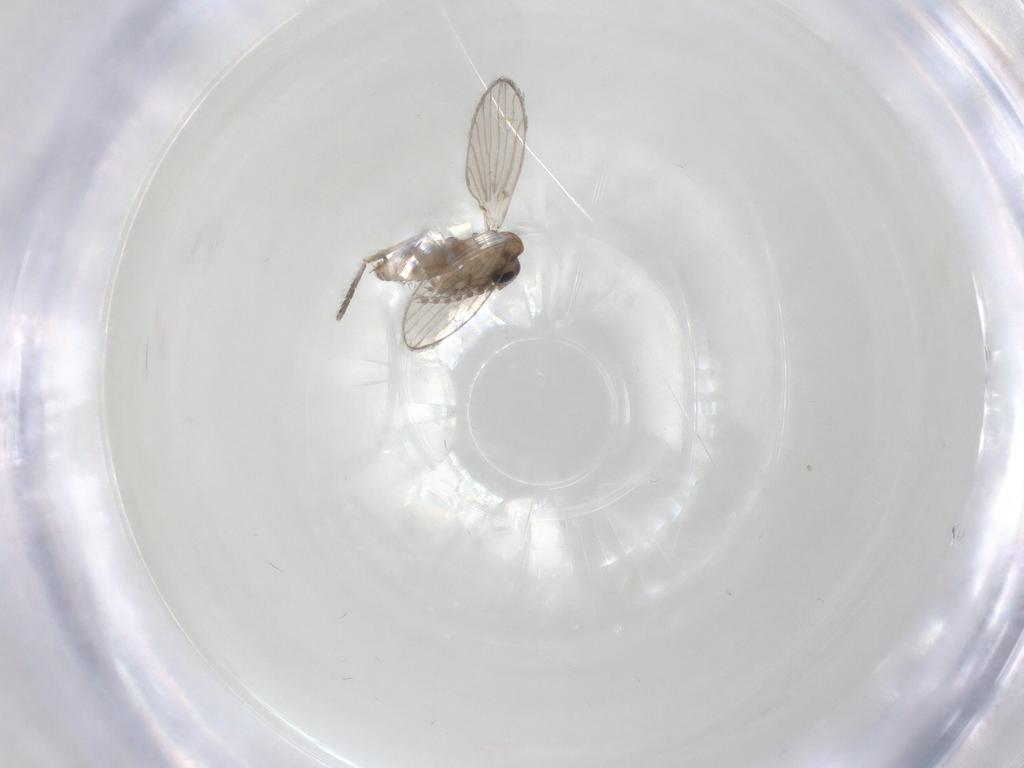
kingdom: Animalia
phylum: Arthropoda
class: Insecta
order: Diptera
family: Psychodidae
